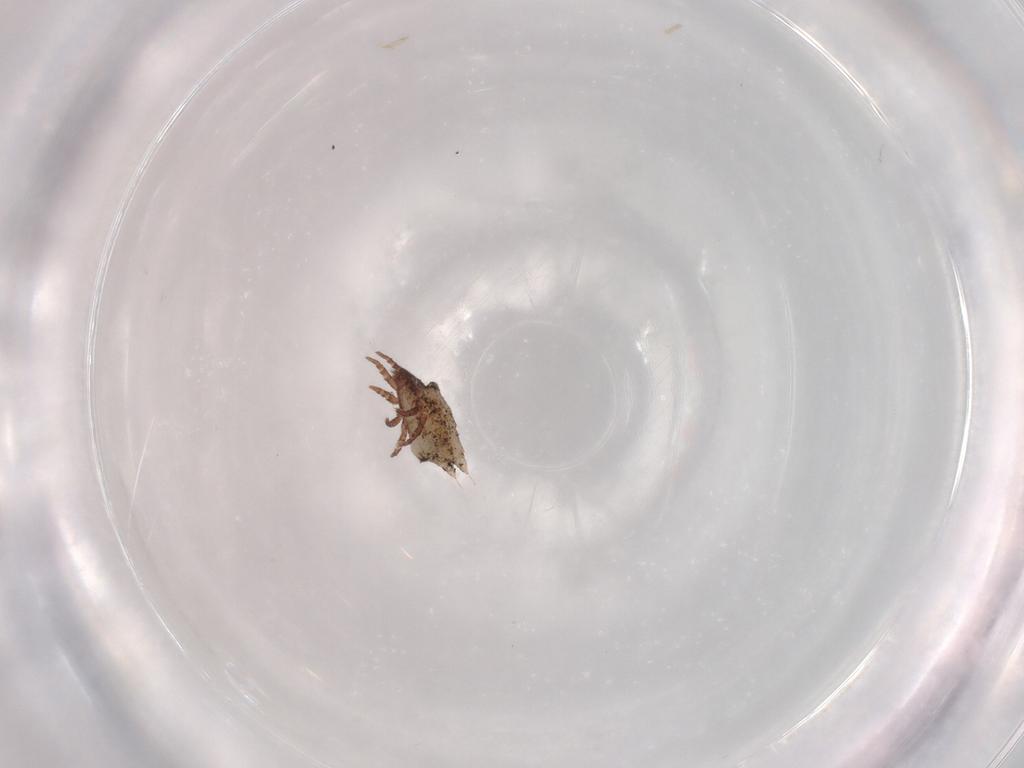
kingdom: Animalia
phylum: Arthropoda
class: Arachnida
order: Sarcoptiformes
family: Ceratozetidae
